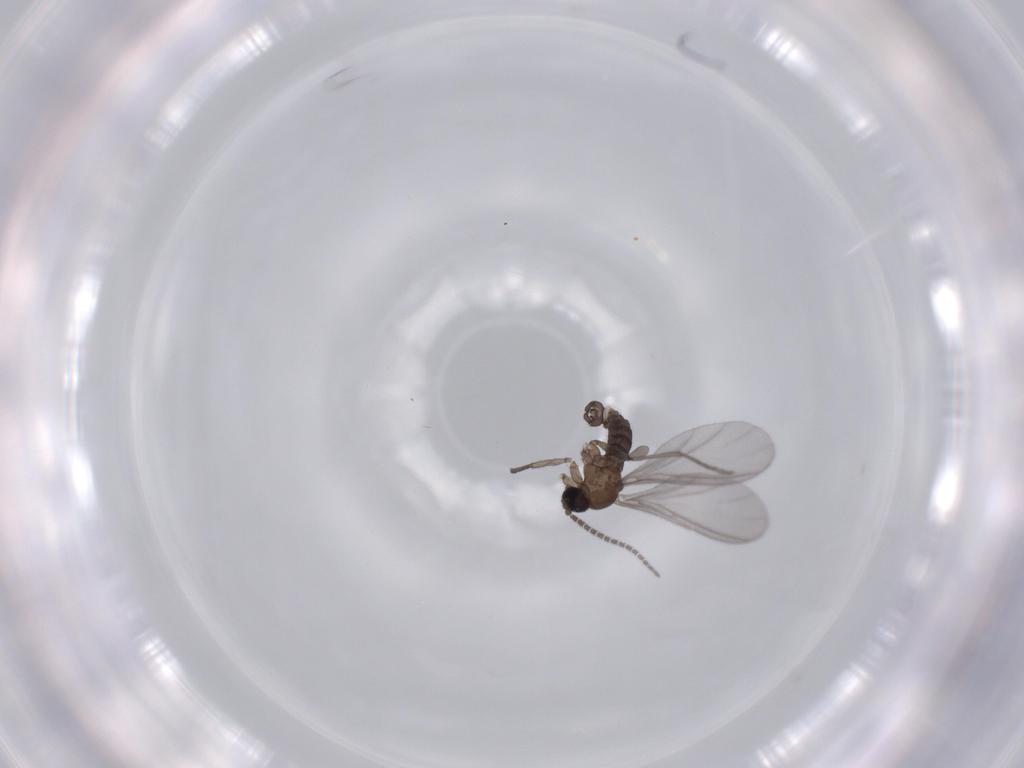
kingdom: Animalia
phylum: Arthropoda
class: Insecta
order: Diptera
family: Sciaridae
